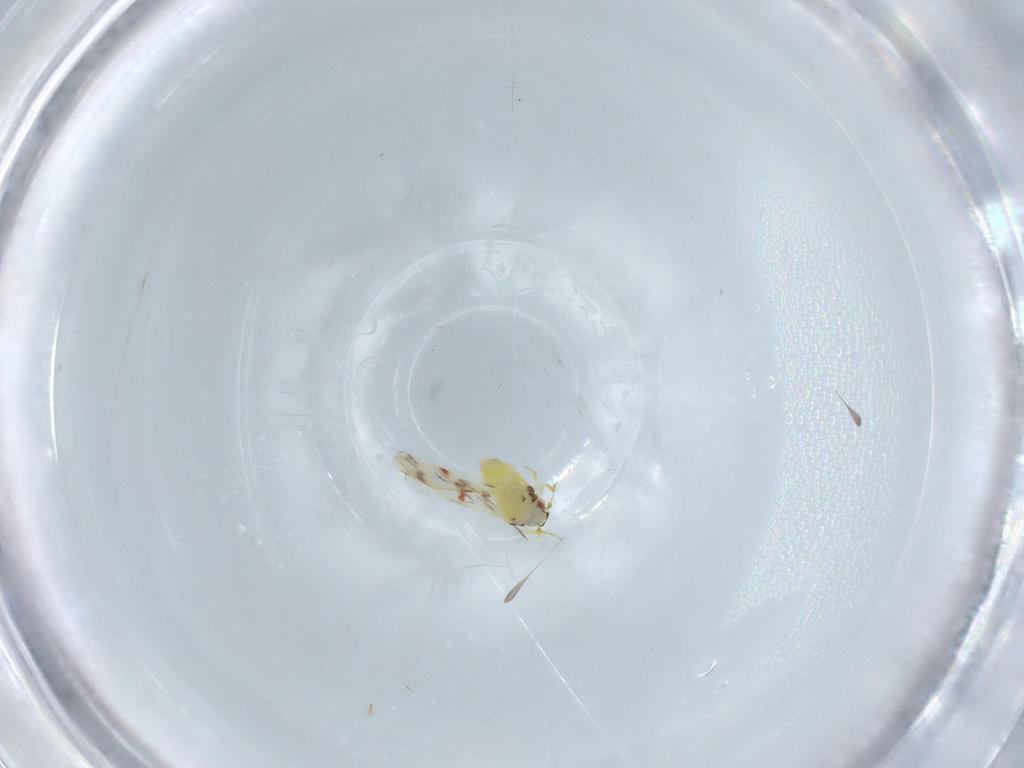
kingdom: Animalia
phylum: Arthropoda
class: Insecta
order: Hemiptera
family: Aleyrodidae
